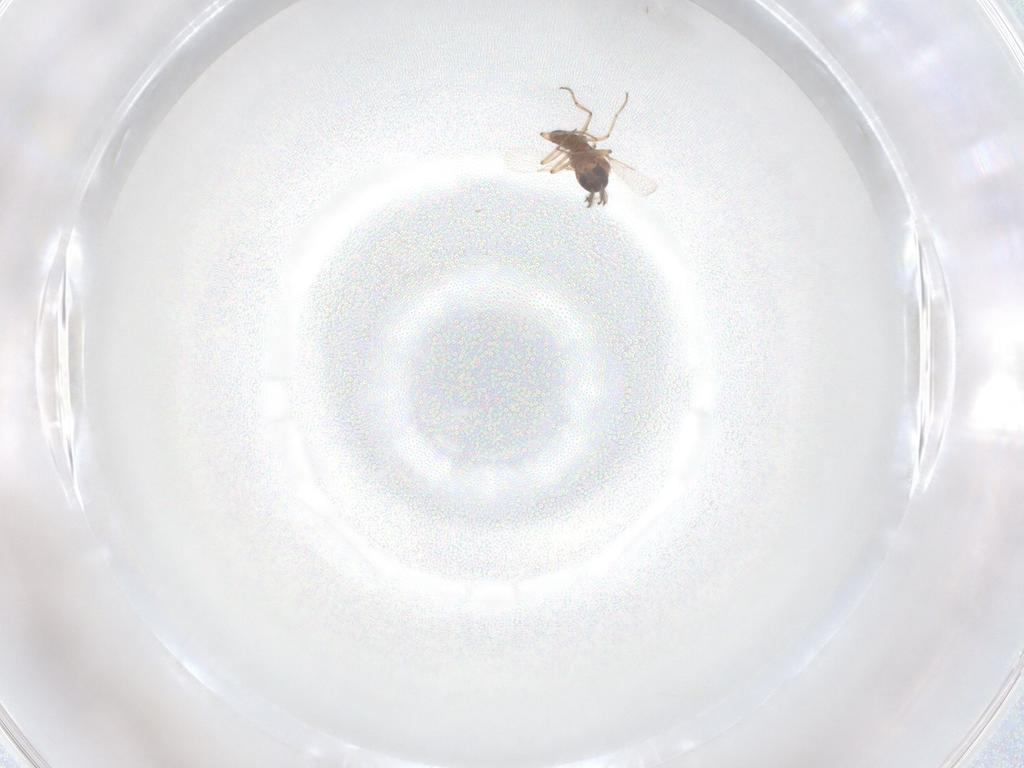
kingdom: Animalia
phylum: Arthropoda
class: Insecta
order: Diptera
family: Ceratopogonidae
